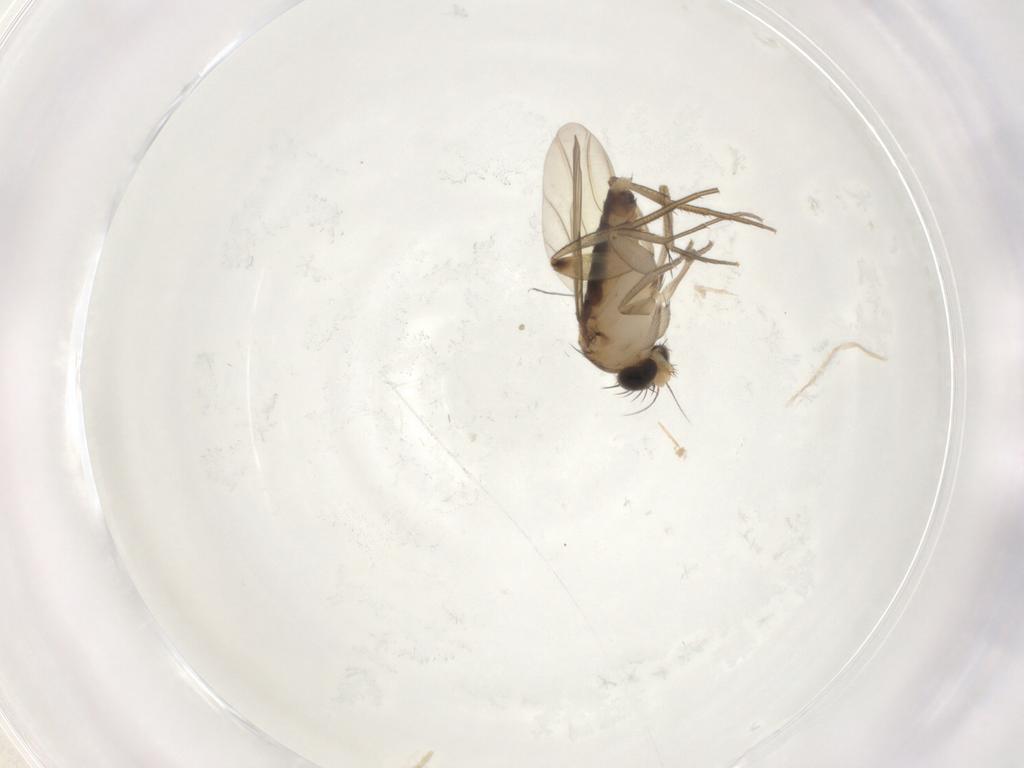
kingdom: Animalia
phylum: Arthropoda
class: Insecta
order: Diptera
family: Phoridae
